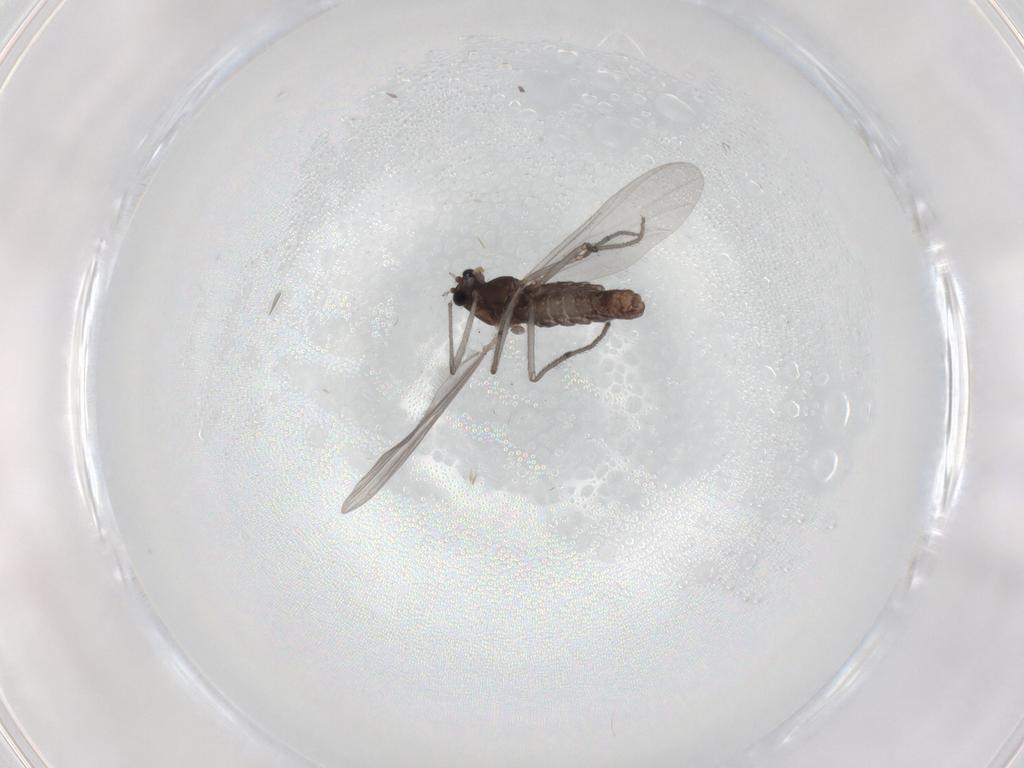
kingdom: Animalia
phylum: Arthropoda
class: Insecta
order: Diptera
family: Chironomidae
